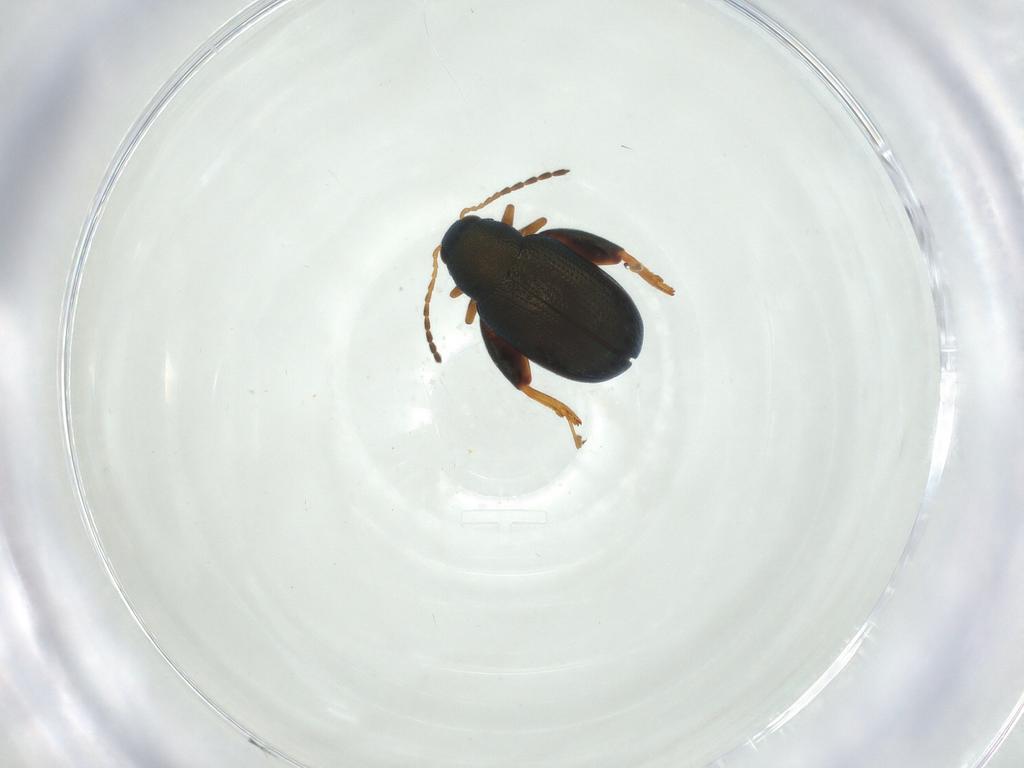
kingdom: Animalia
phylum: Arthropoda
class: Insecta
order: Coleoptera
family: Chrysomelidae
